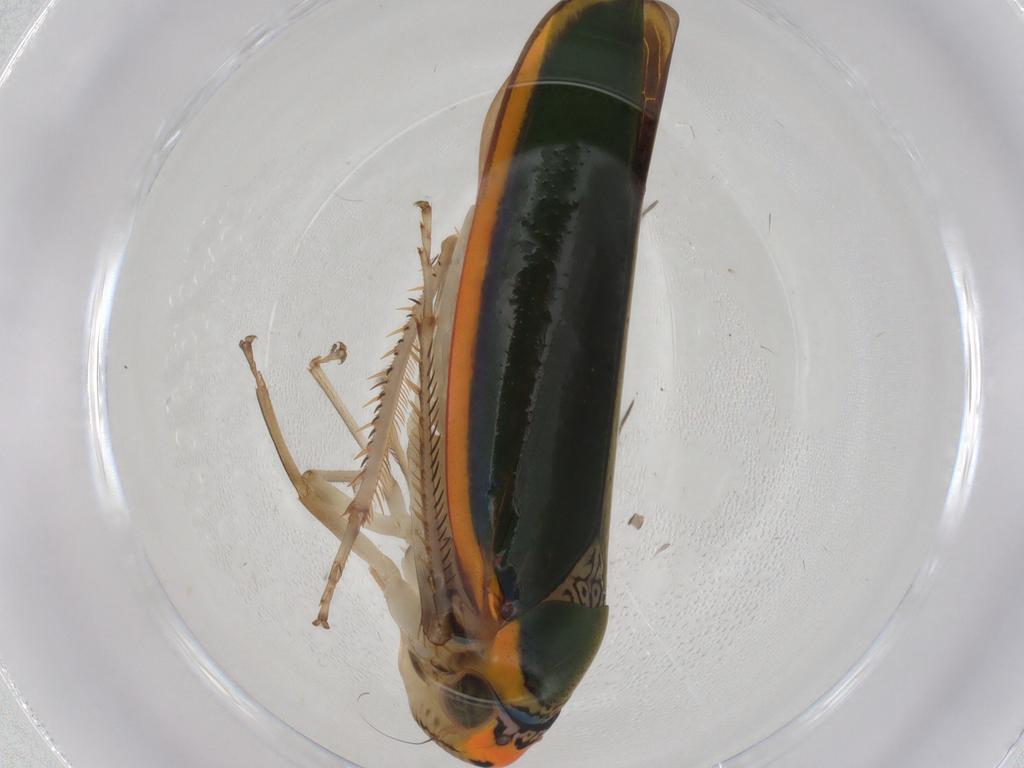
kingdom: Animalia
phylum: Arthropoda
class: Insecta
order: Hemiptera
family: Cicadellidae
